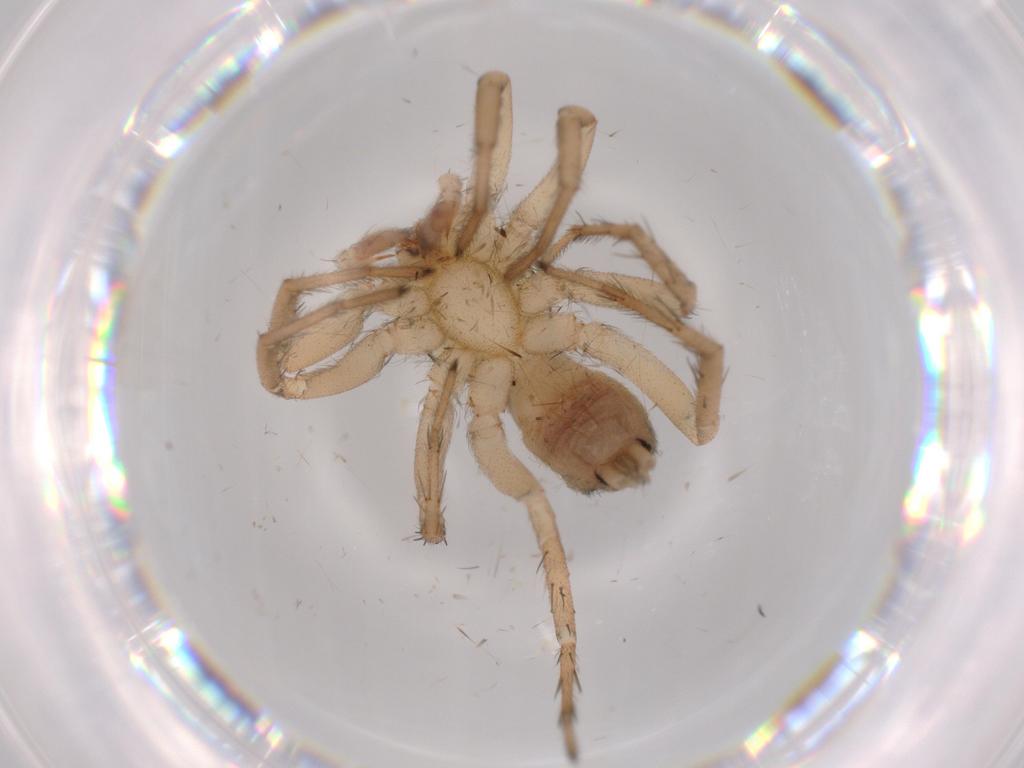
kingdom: Animalia
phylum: Arthropoda
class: Arachnida
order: Araneae
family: Gnaphosidae
